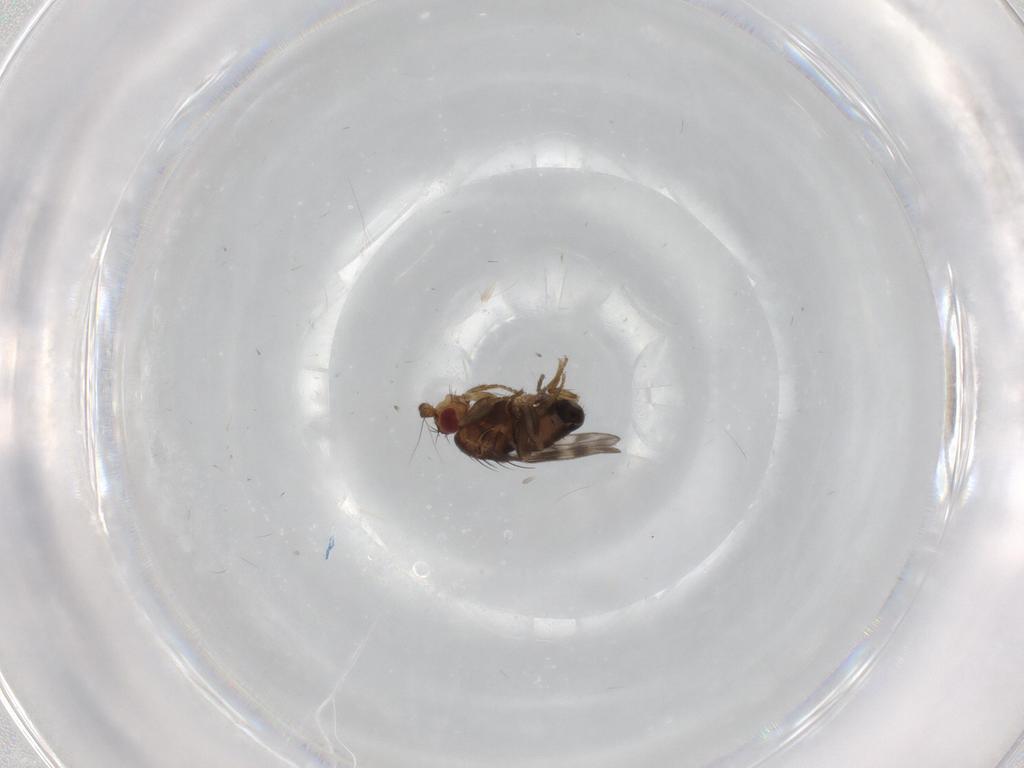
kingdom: Animalia
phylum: Arthropoda
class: Insecta
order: Diptera
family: Sphaeroceridae
